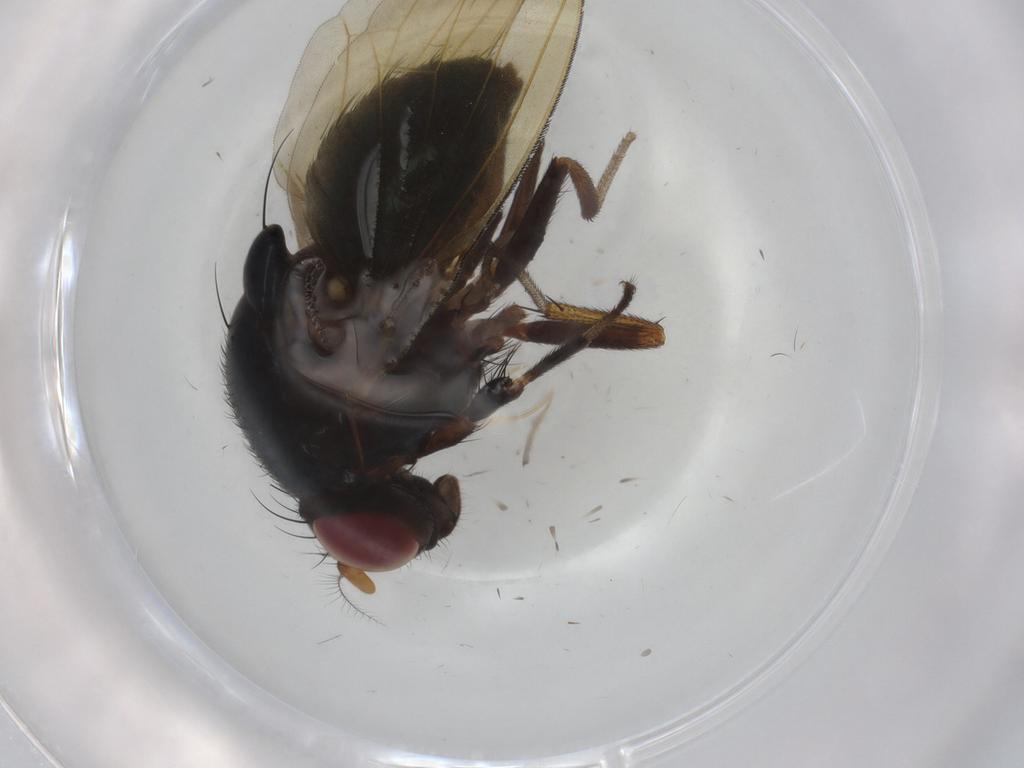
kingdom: Animalia
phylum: Arthropoda
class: Insecta
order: Diptera
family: Chironomidae
